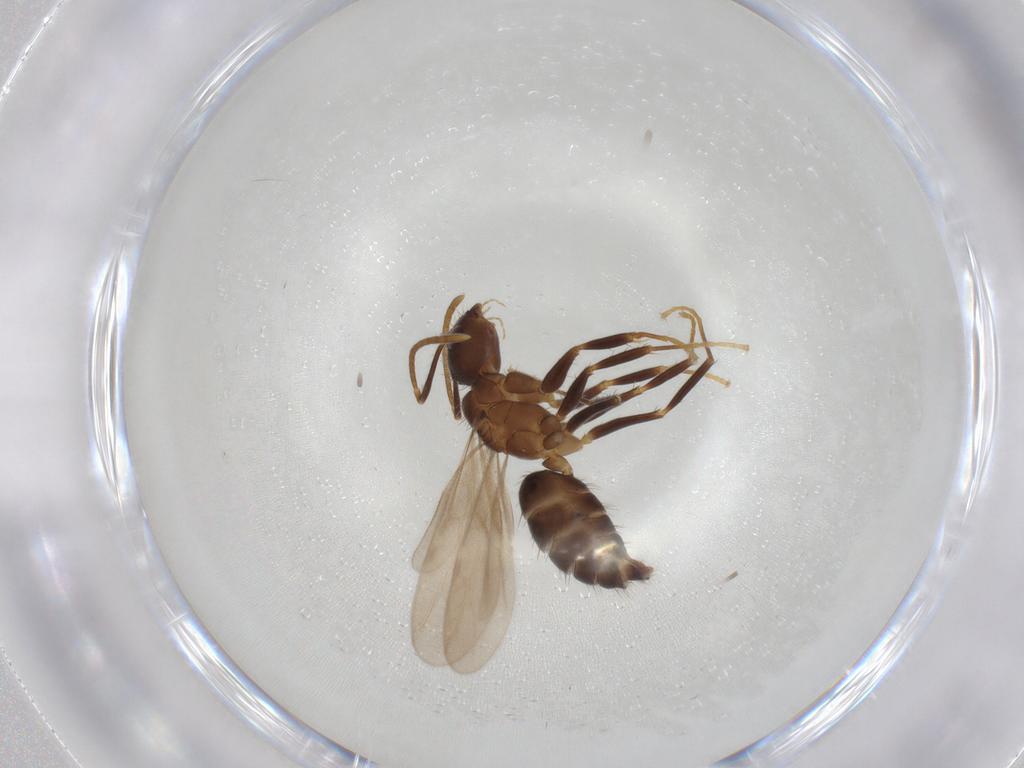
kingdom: Animalia
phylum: Arthropoda
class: Insecta
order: Hymenoptera
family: Formicidae
